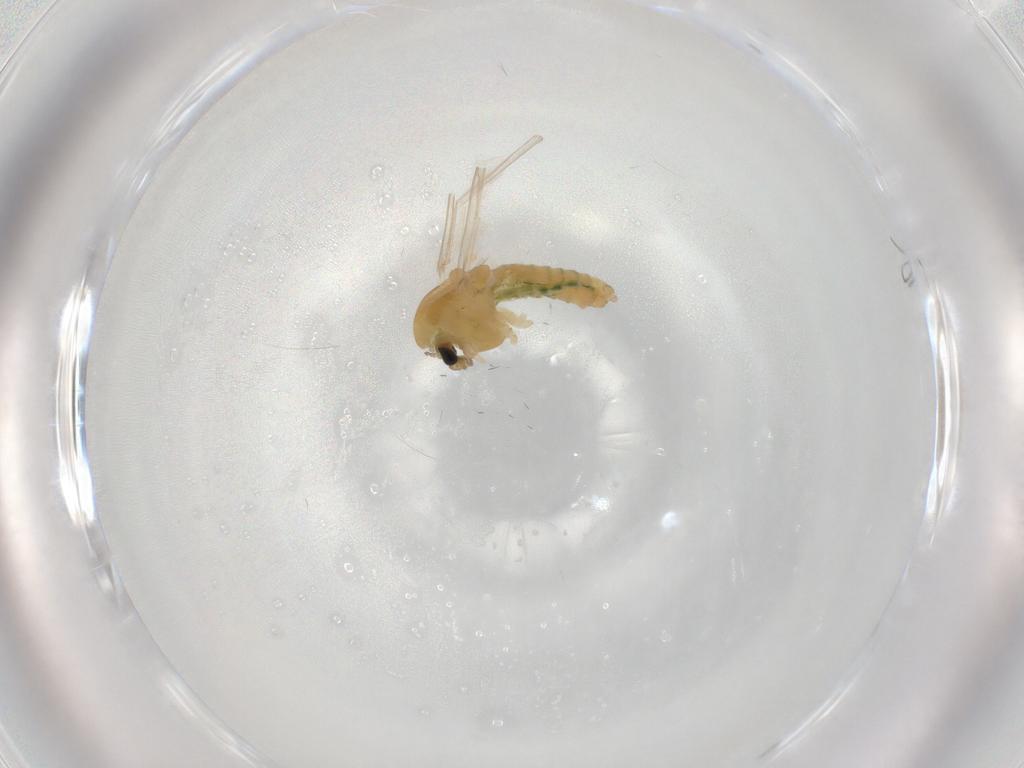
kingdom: Animalia
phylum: Arthropoda
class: Insecta
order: Diptera
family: Chironomidae
